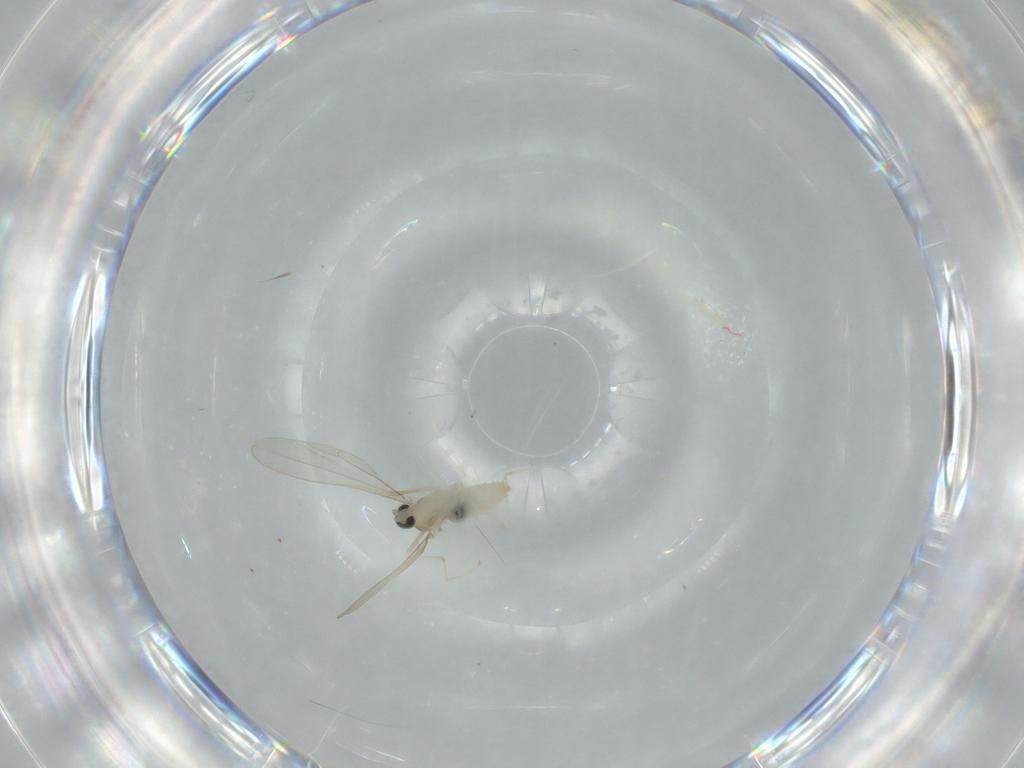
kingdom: Animalia
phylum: Arthropoda
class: Insecta
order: Diptera
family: Cecidomyiidae
